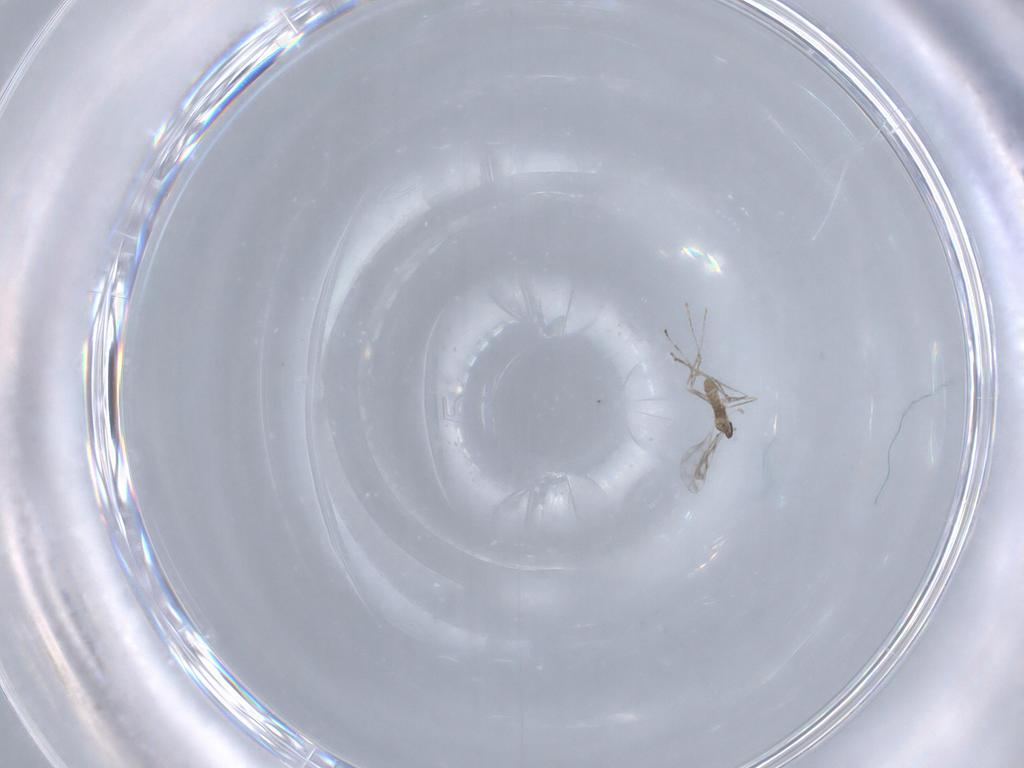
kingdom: Animalia
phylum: Arthropoda
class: Insecta
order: Diptera
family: Cecidomyiidae
